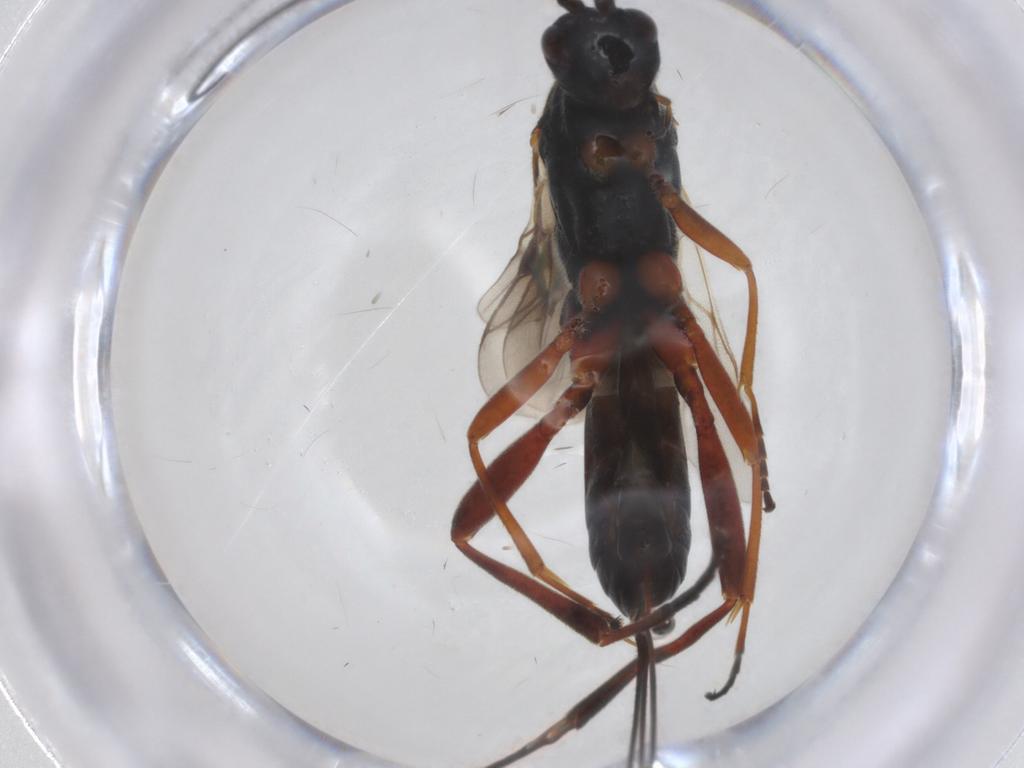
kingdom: Animalia
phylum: Arthropoda
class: Insecta
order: Hymenoptera
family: Braconidae
